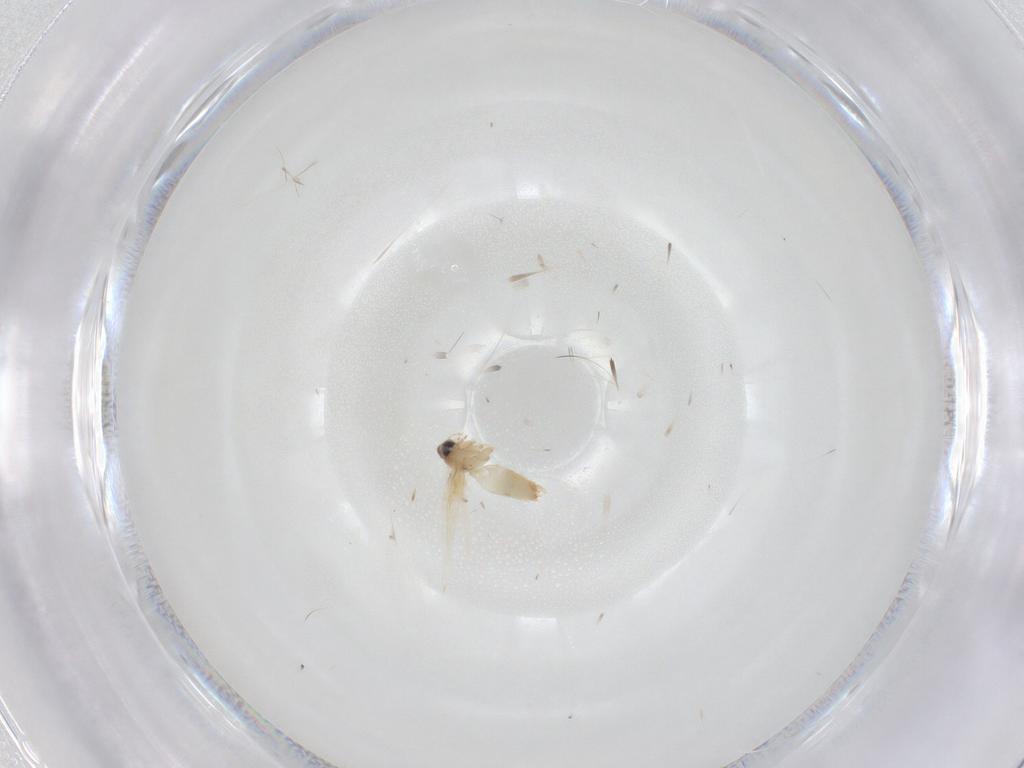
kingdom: Animalia
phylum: Arthropoda
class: Insecta
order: Lepidoptera
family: Crambidae
